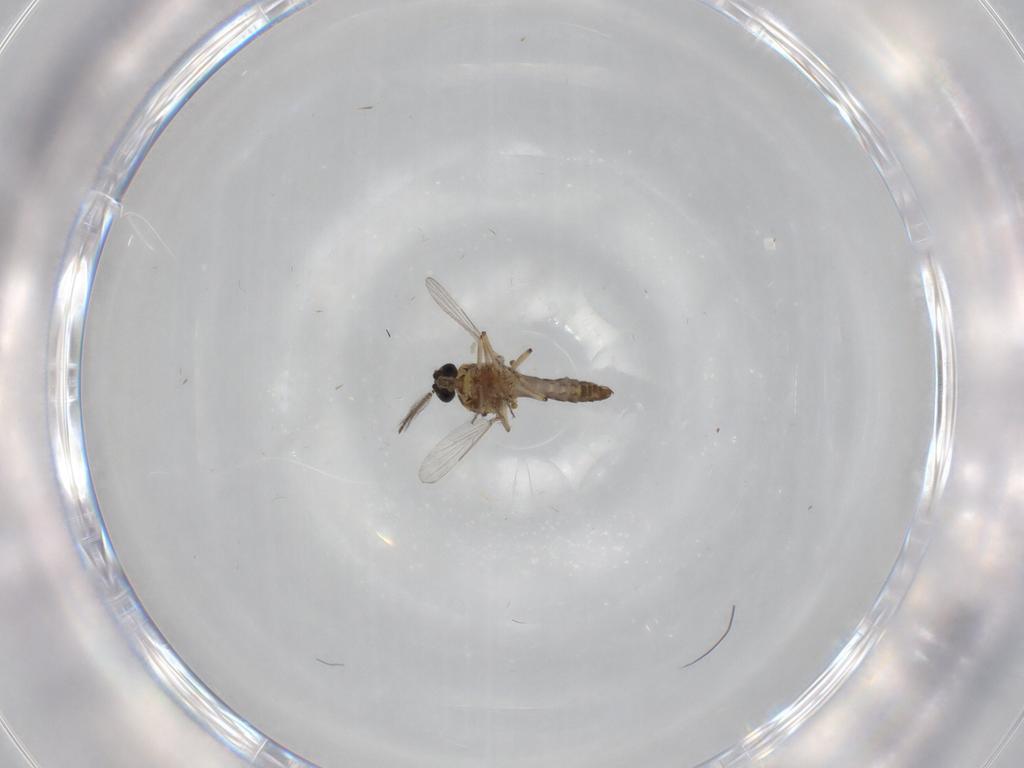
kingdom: Animalia
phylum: Arthropoda
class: Insecta
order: Diptera
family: Ceratopogonidae
